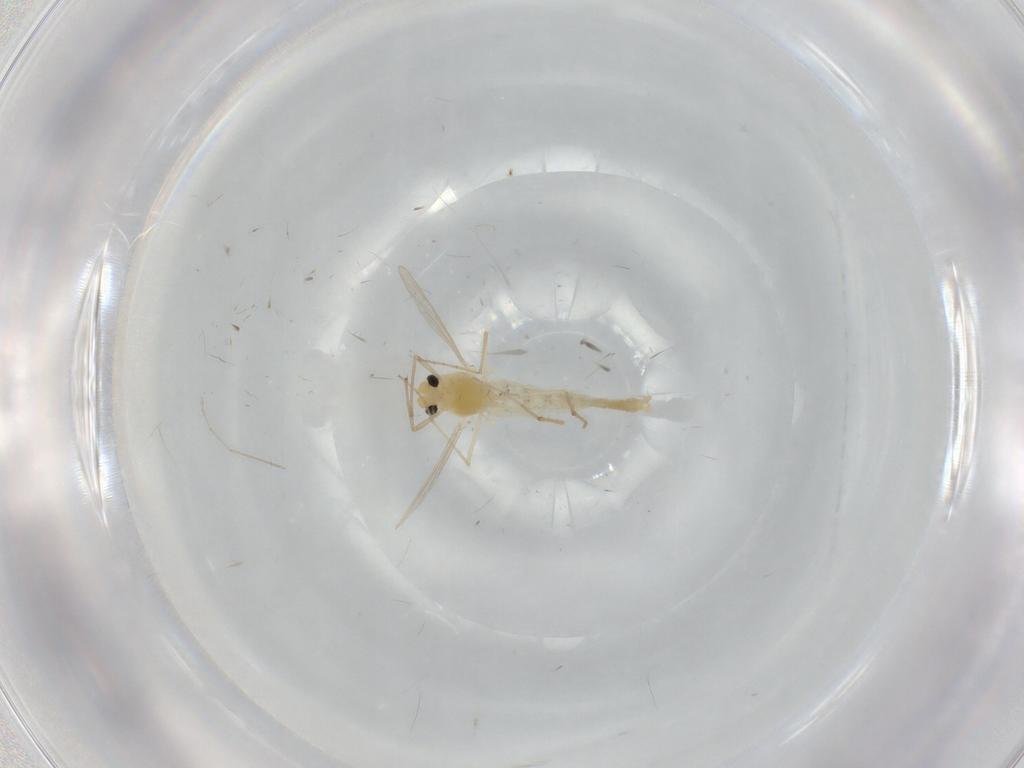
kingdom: Animalia
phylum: Arthropoda
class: Insecta
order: Diptera
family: Chironomidae
